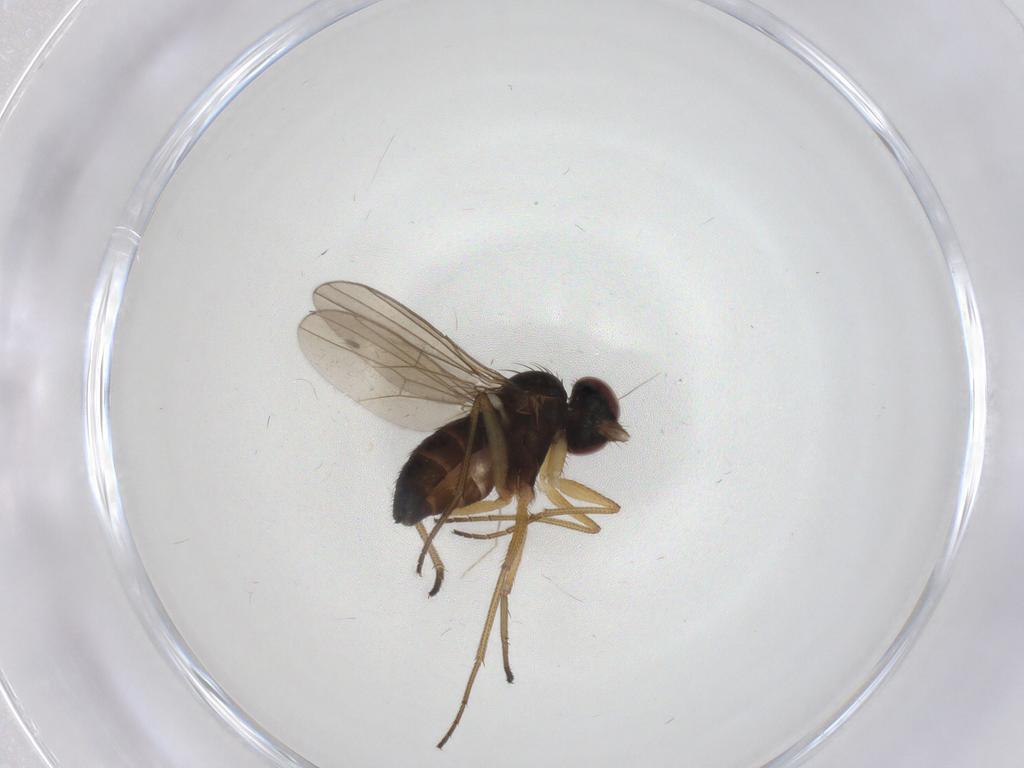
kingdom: Animalia
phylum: Arthropoda
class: Insecta
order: Diptera
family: Dolichopodidae
